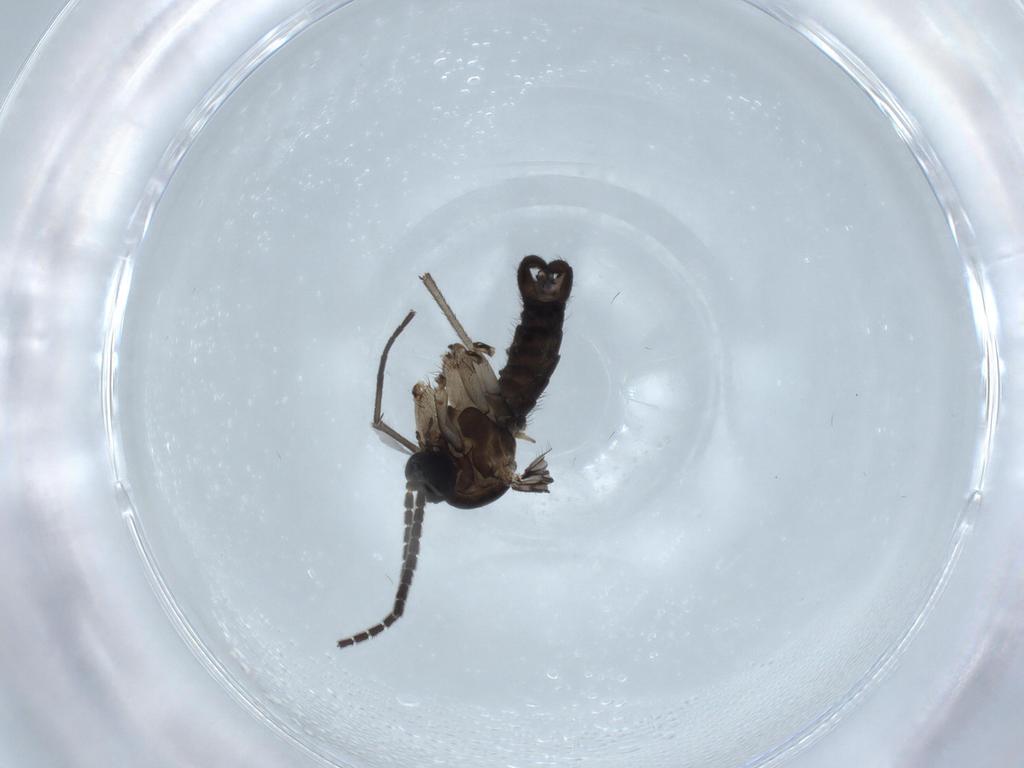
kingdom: Animalia
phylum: Arthropoda
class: Insecta
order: Diptera
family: Sciaridae
